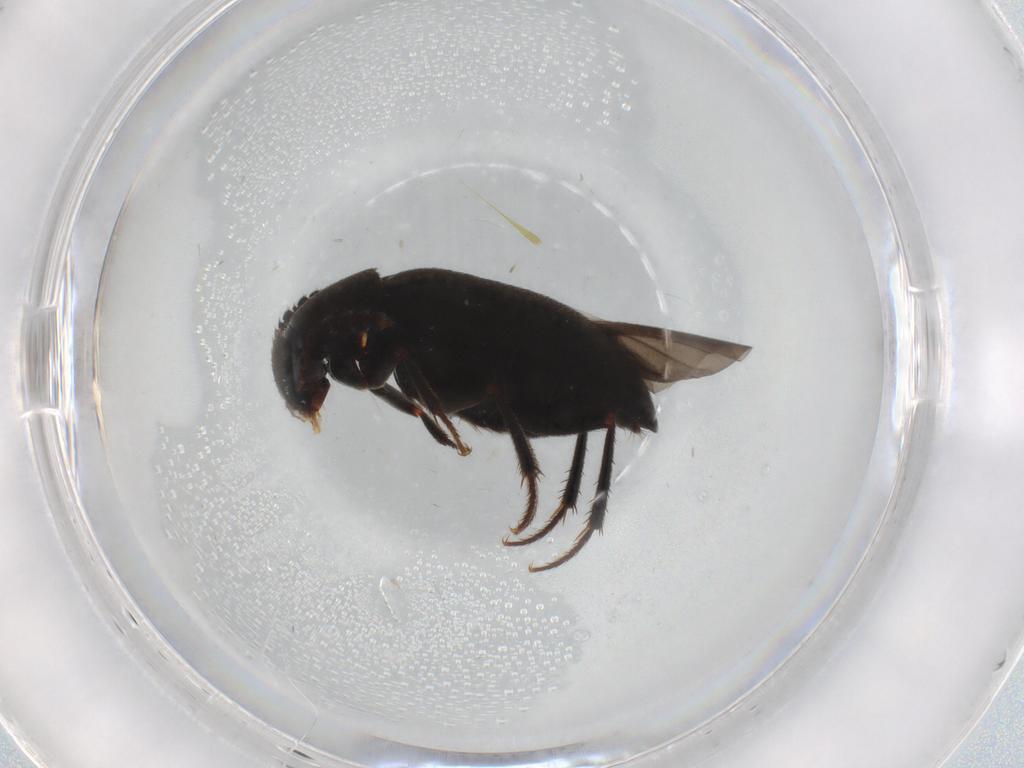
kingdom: Animalia
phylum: Arthropoda
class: Insecta
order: Coleoptera
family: Leiodidae
